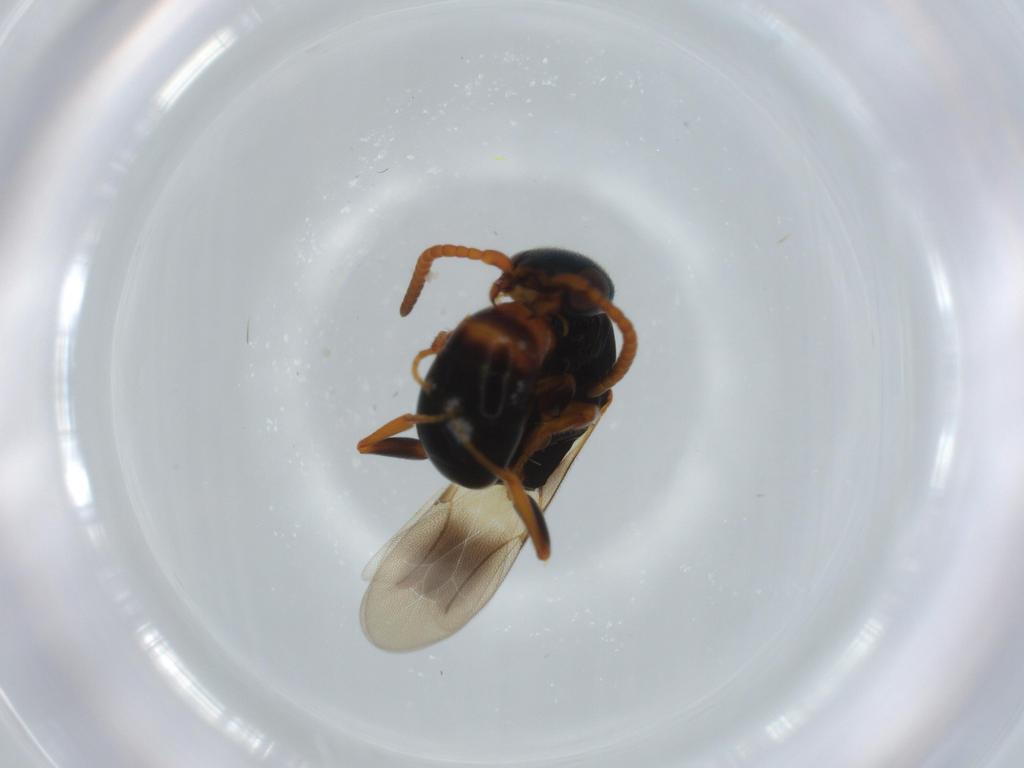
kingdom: Animalia
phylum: Arthropoda
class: Insecta
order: Hymenoptera
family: Bethylidae
